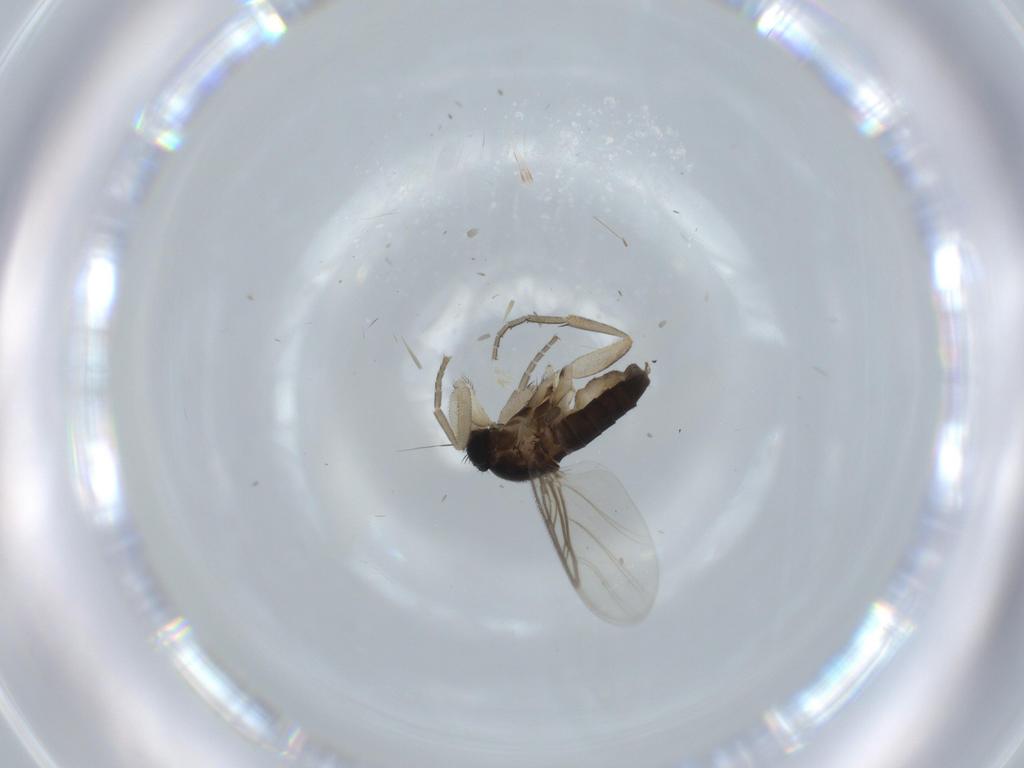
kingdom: Animalia
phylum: Arthropoda
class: Insecta
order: Diptera
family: Phoridae
